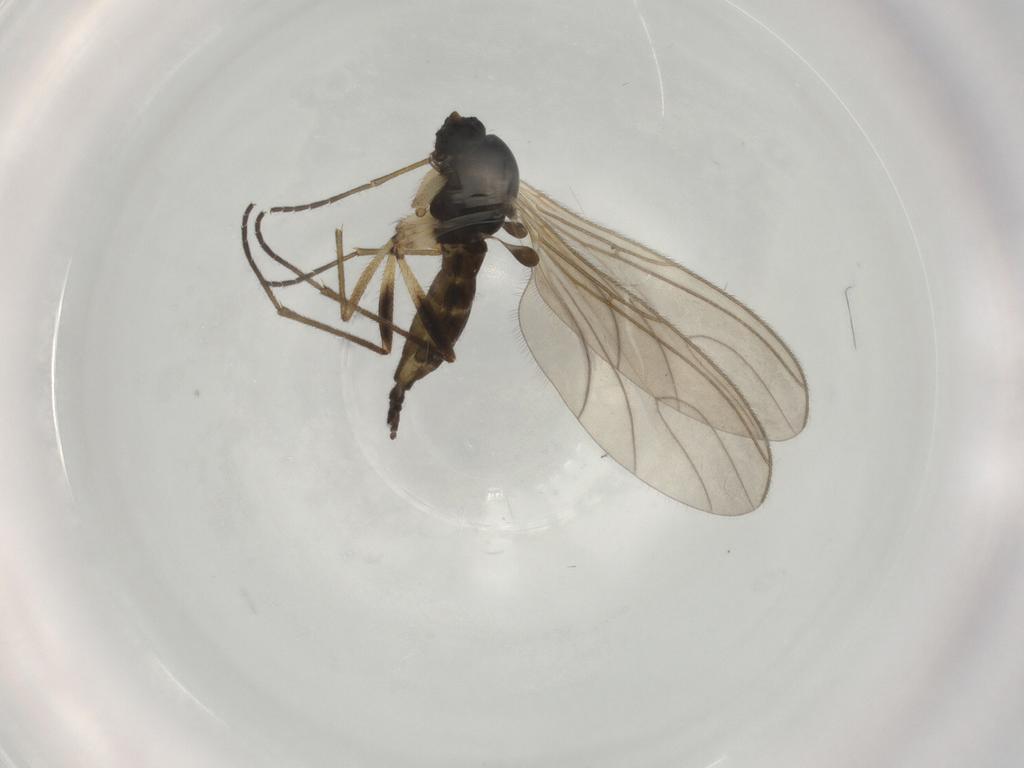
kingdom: Animalia
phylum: Arthropoda
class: Insecta
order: Diptera
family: Sciaridae
